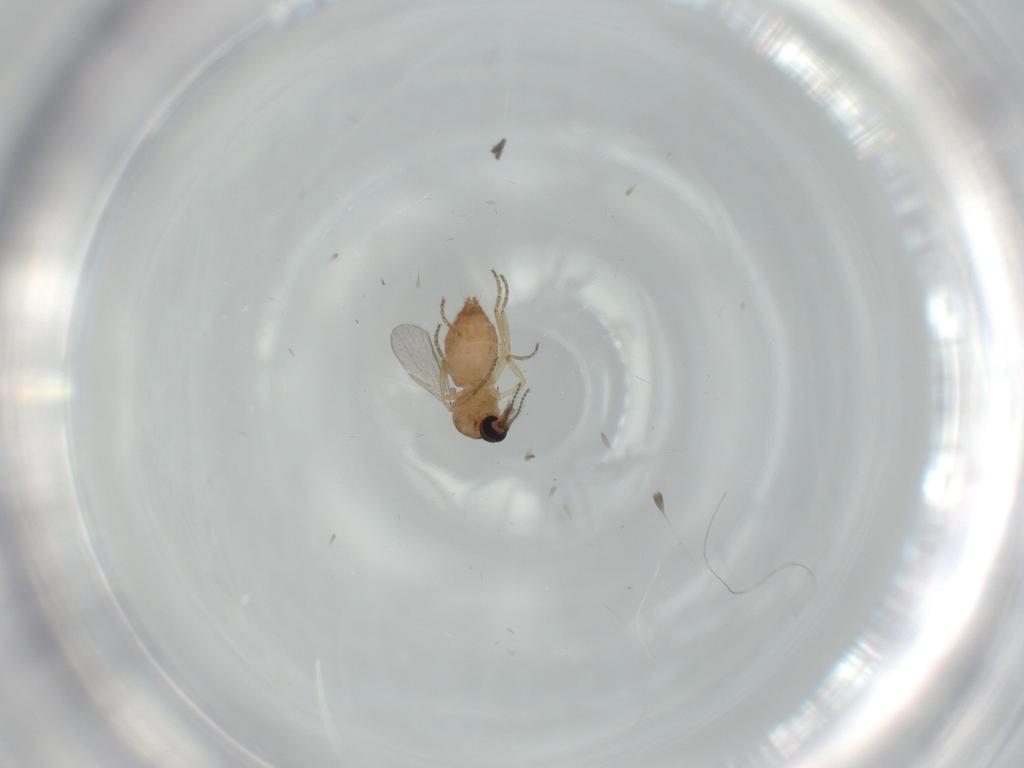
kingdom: Animalia
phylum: Arthropoda
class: Insecta
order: Diptera
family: Ceratopogonidae
